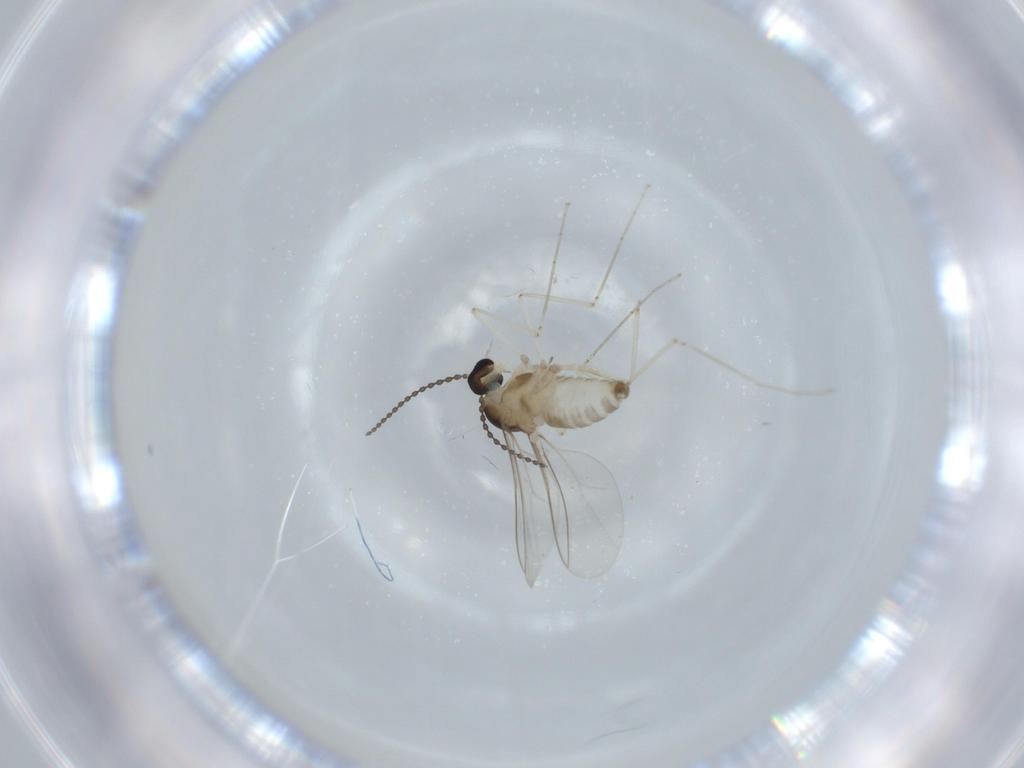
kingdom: Animalia
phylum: Arthropoda
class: Insecta
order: Diptera
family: Cecidomyiidae
